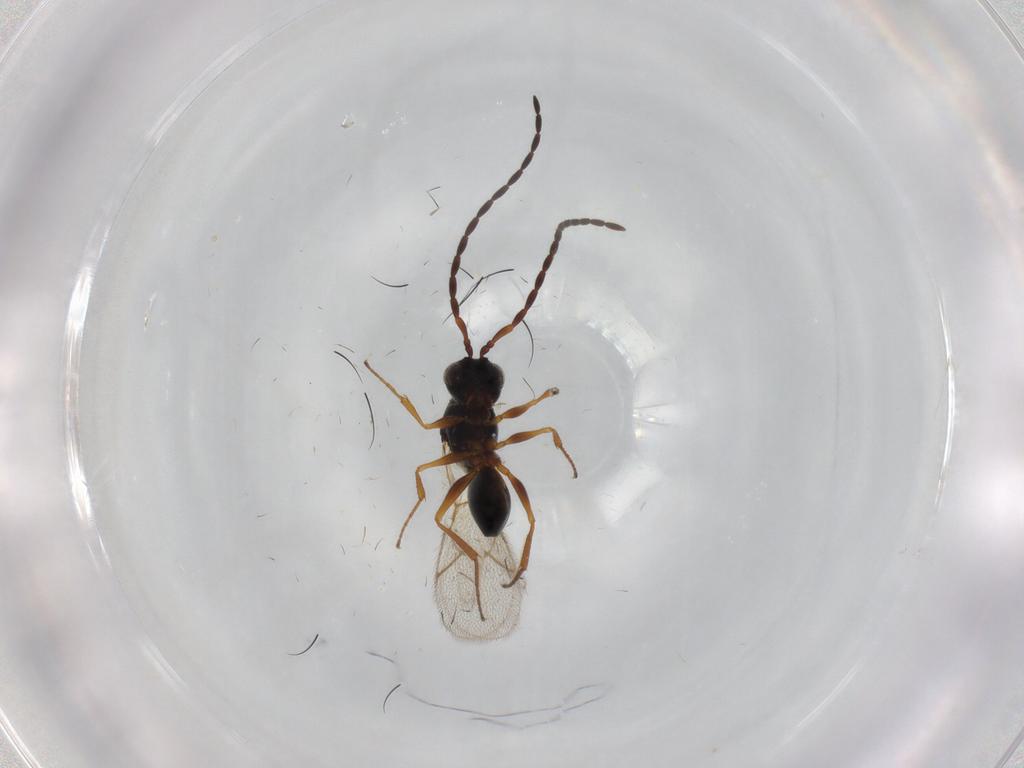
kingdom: Animalia
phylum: Arthropoda
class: Insecta
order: Hymenoptera
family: Figitidae
